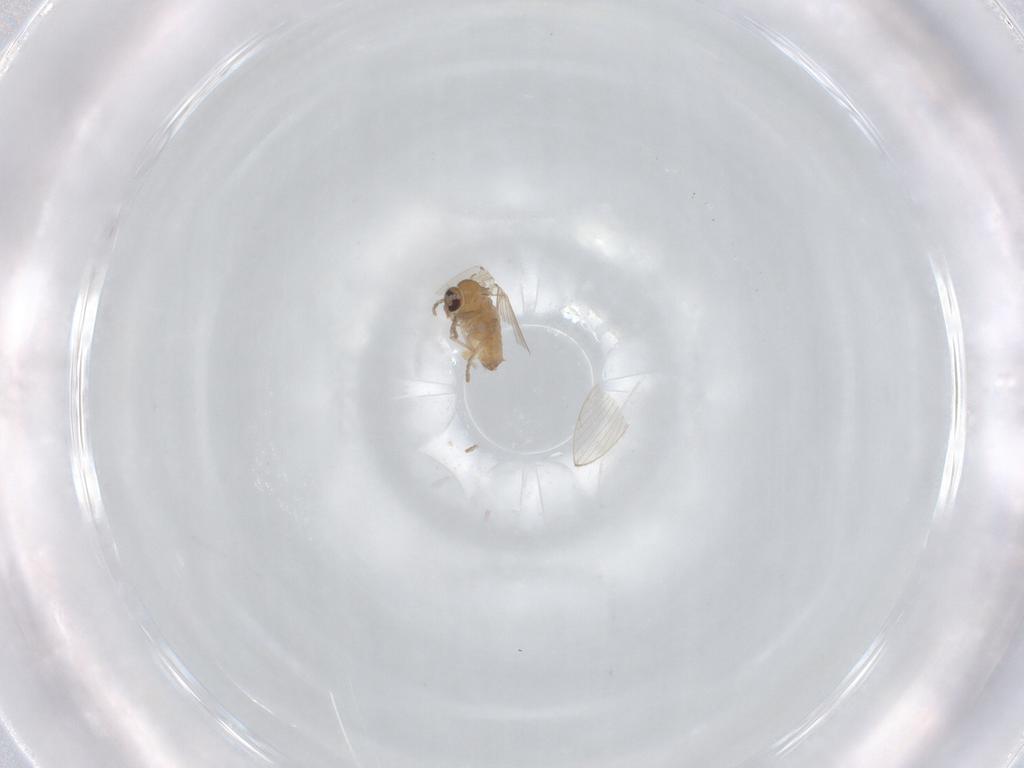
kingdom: Animalia
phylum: Arthropoda
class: Insecta
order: Diptera
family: Psychodidae
